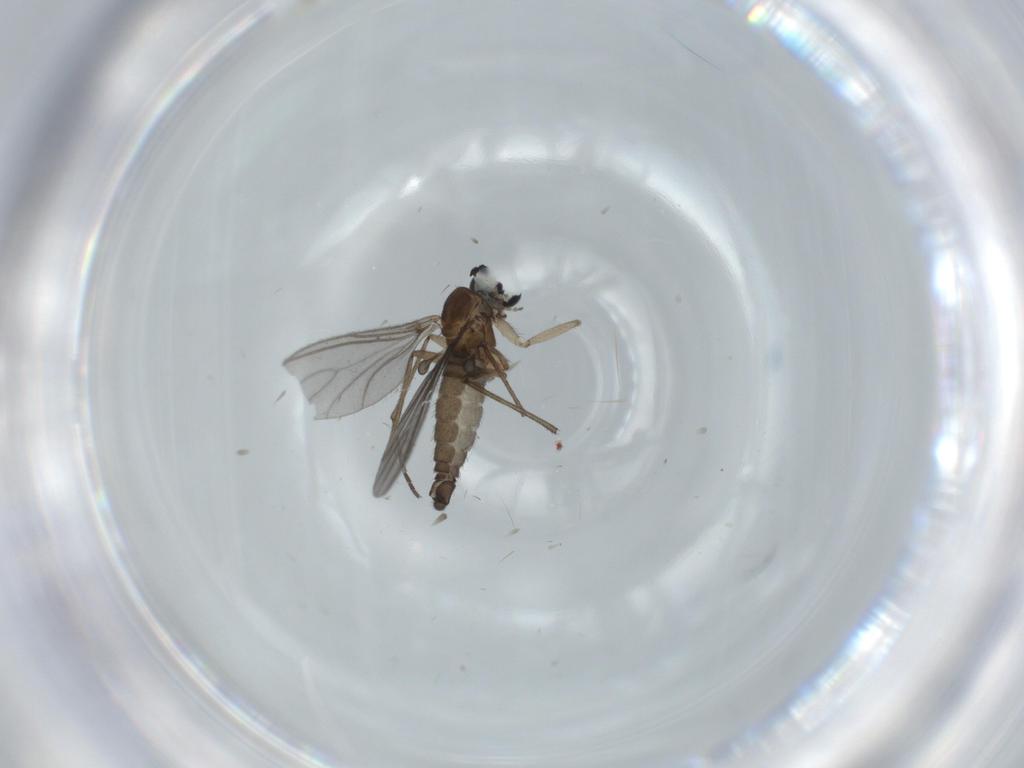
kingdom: Animalia
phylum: Arthropoda
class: Insecta
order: Diptera
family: Sciaridae
